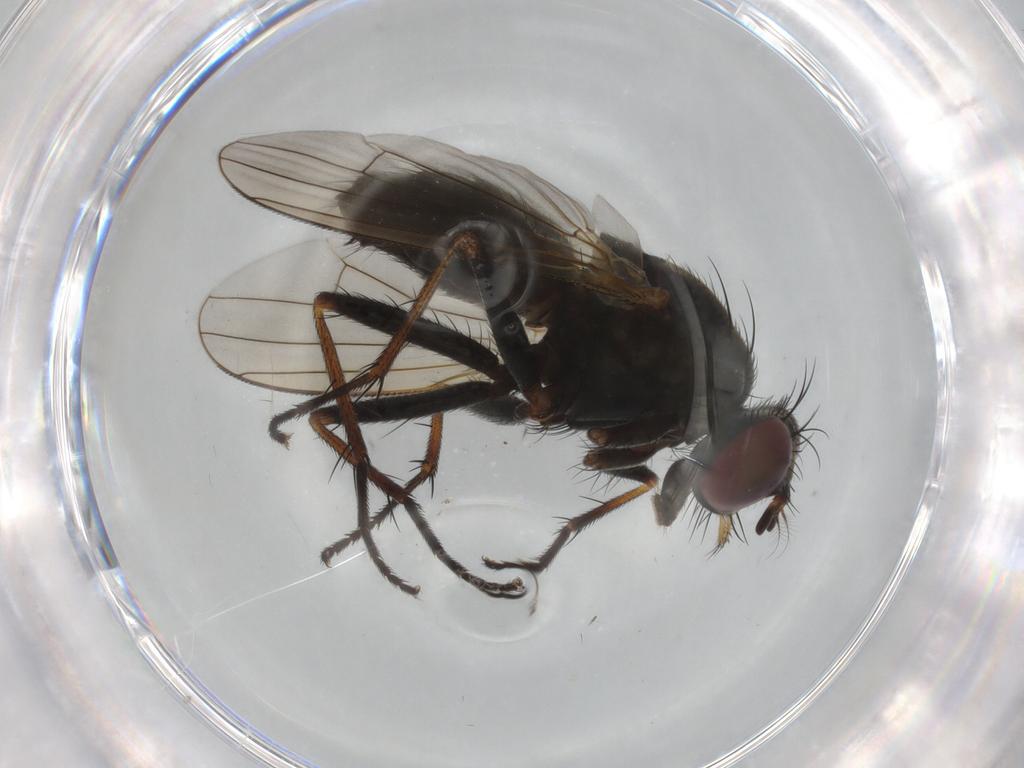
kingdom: Animalia
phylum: Arthropoda
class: Insecta
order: Diptera
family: Muscidae
